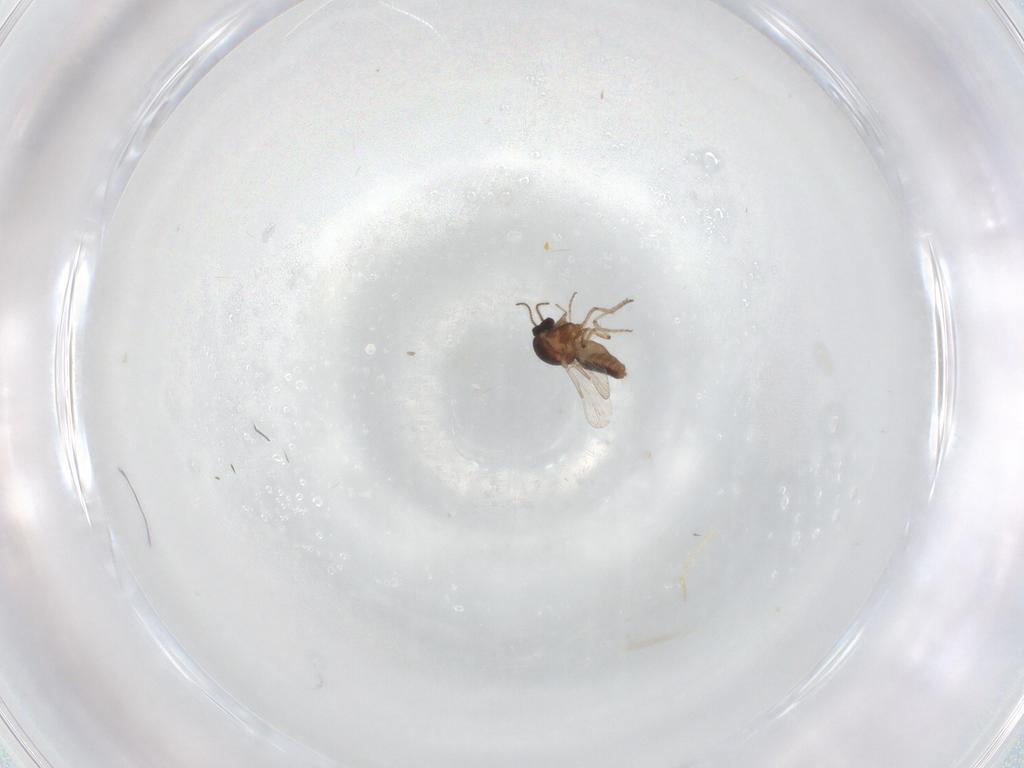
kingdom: Animalia
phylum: Arthropoda
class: Insecta
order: Diptera
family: Ceratopogonidae
